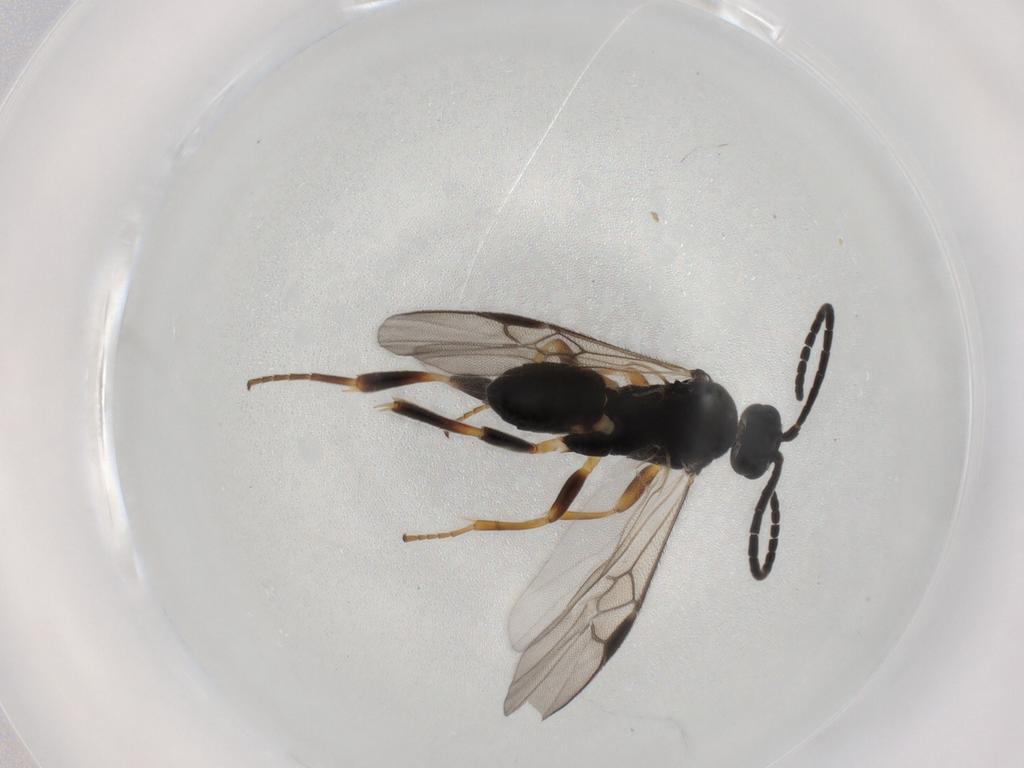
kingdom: Animalia
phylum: Arthropoda
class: Insecta
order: Hymenoptera
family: Braconidae
